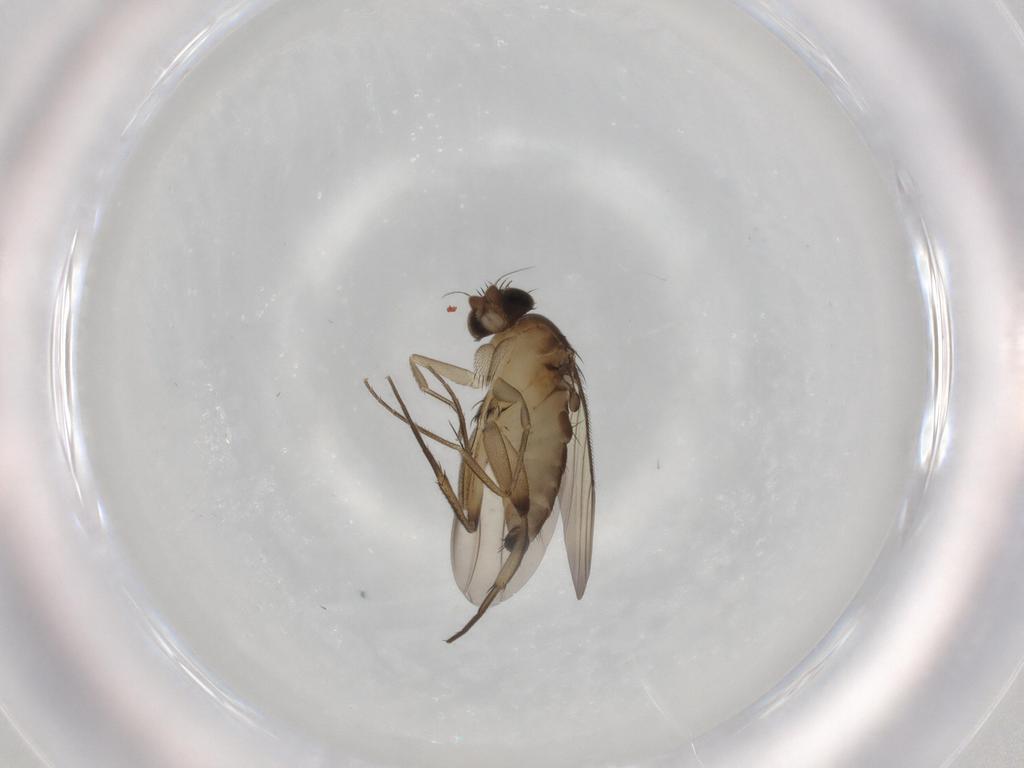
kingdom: Animalia
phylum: Arthropoda
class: Insecta
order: Diptera
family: Phoridae
